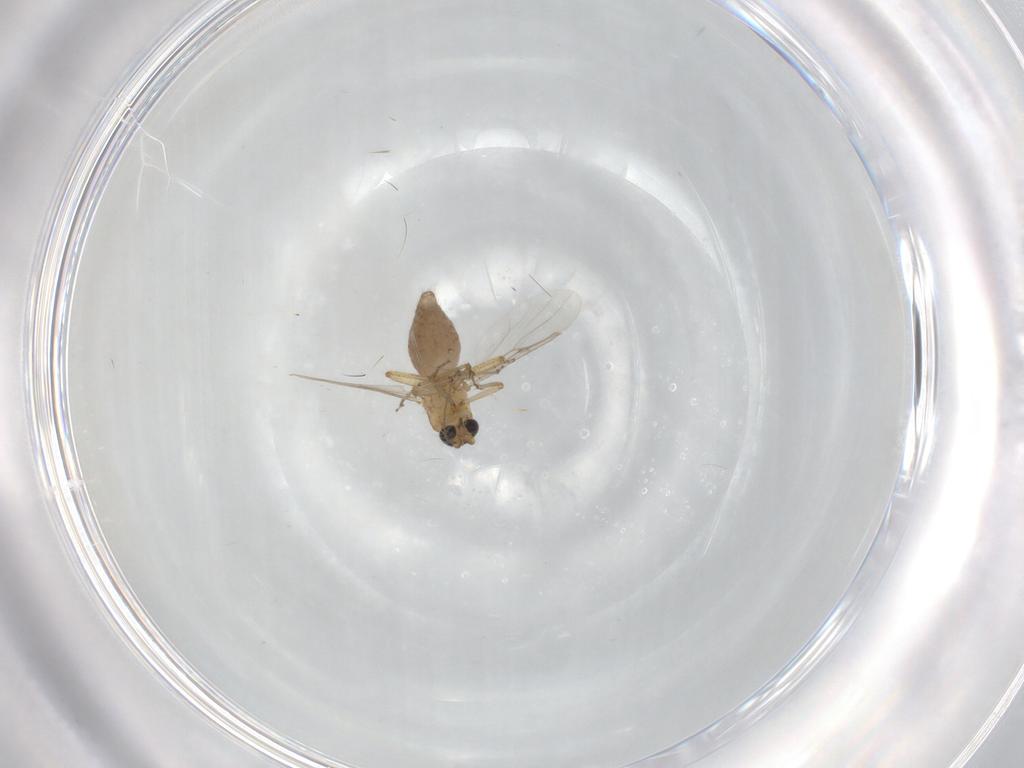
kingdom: Animalia
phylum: Arthropoda
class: Insecta
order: Diptera
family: Ceratopogonidae
